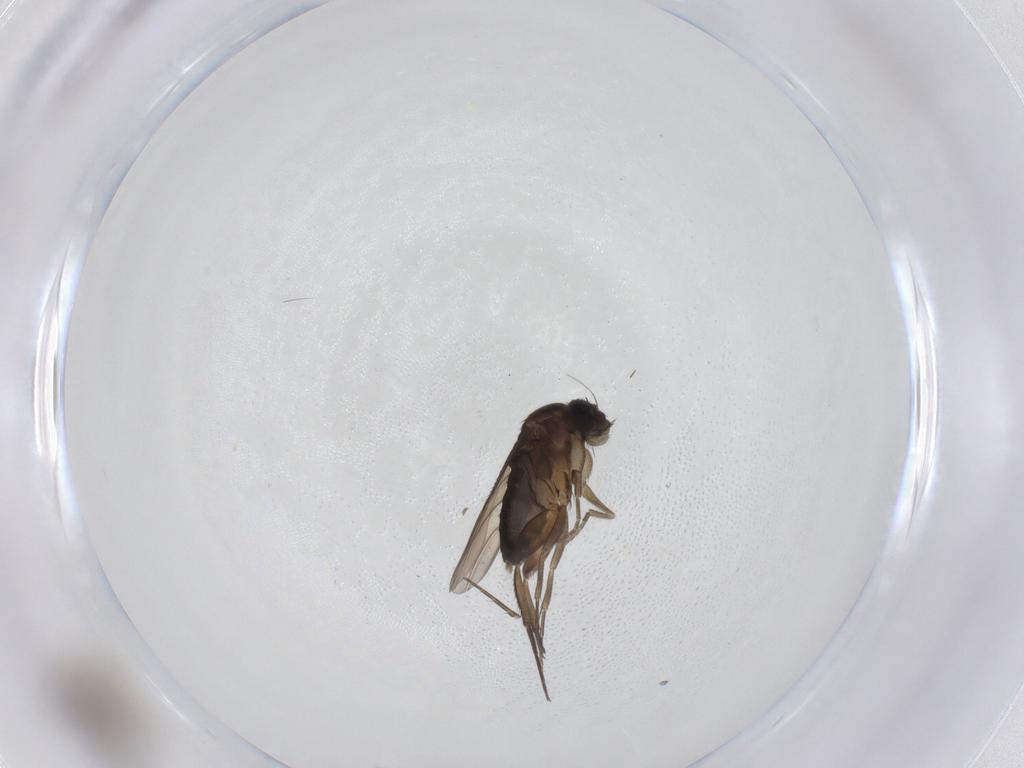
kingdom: Animalia
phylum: Arthropoda
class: Insecta
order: Diptera
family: Phoridae
